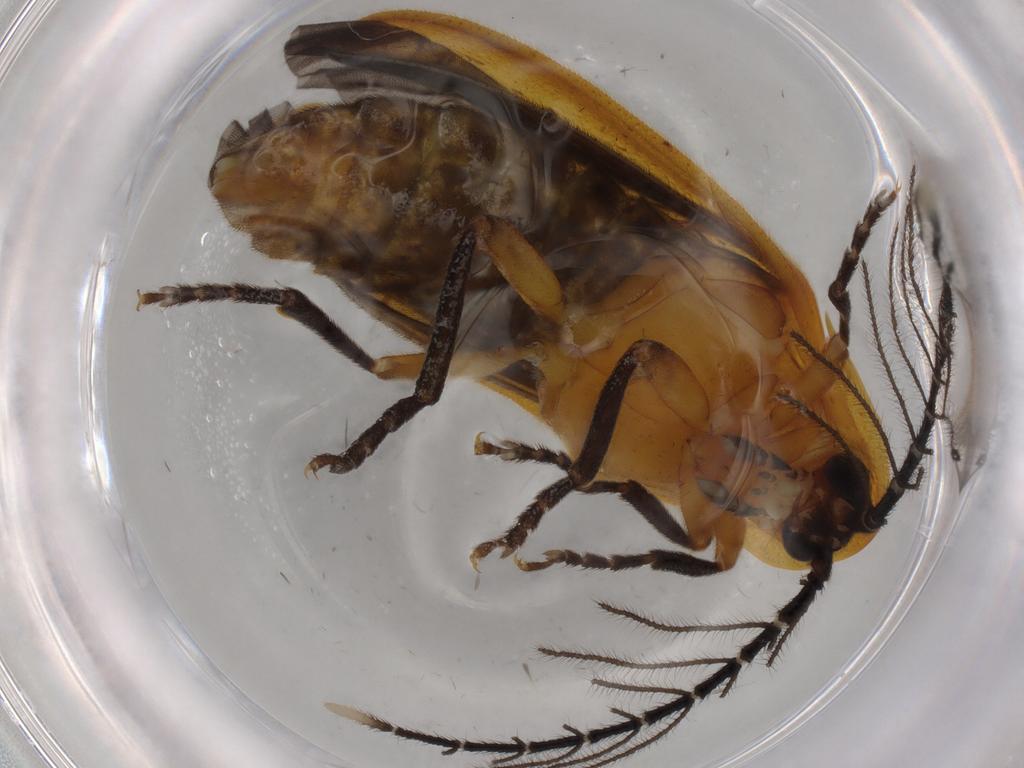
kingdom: Animalia
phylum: Arthropoda
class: Insecta
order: Coleoptera
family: Lampyridae
